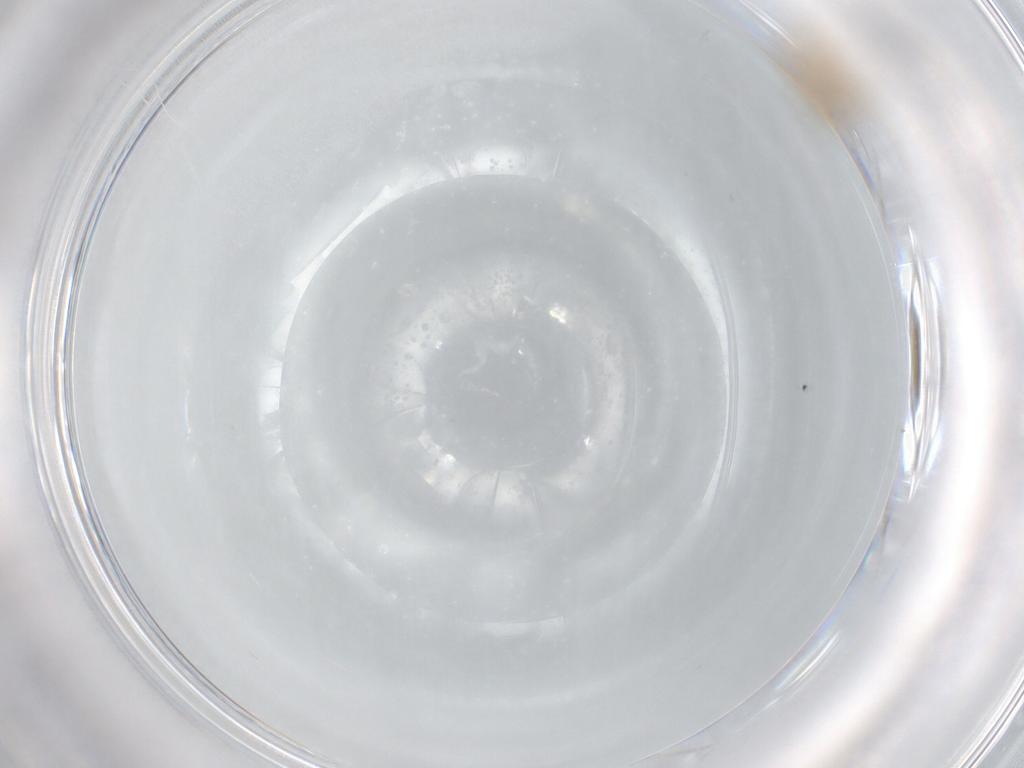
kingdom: Animalia
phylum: Arthropoda
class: Insecta
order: Hymenoptera
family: Scelionidae
